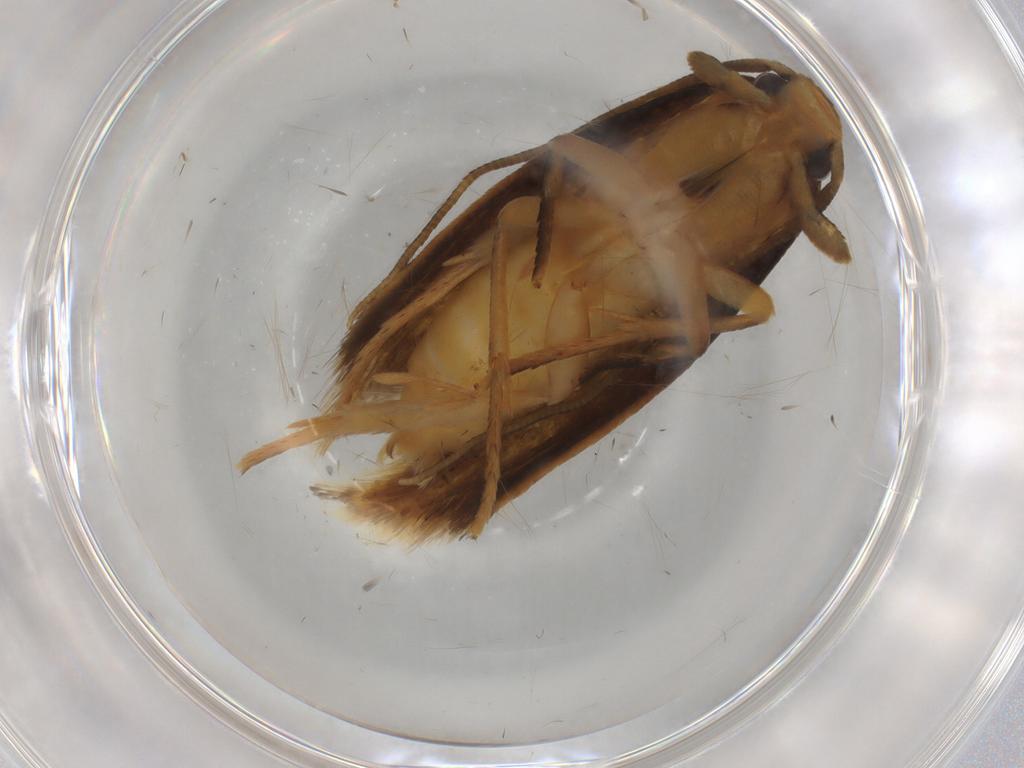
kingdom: Animalia
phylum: Arthropoda
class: Insecta
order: Lepidoptera
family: Tineidae
